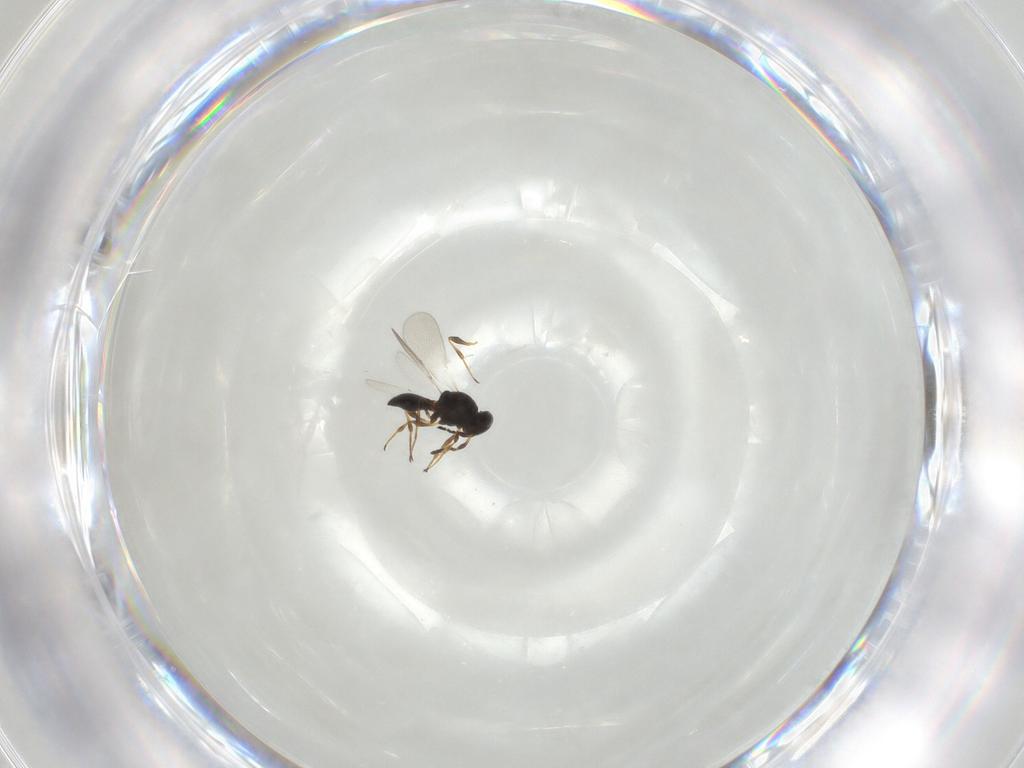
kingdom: Animalia
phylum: Arthropoda
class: Insecta
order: Hymenoptera
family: Platygastridae
